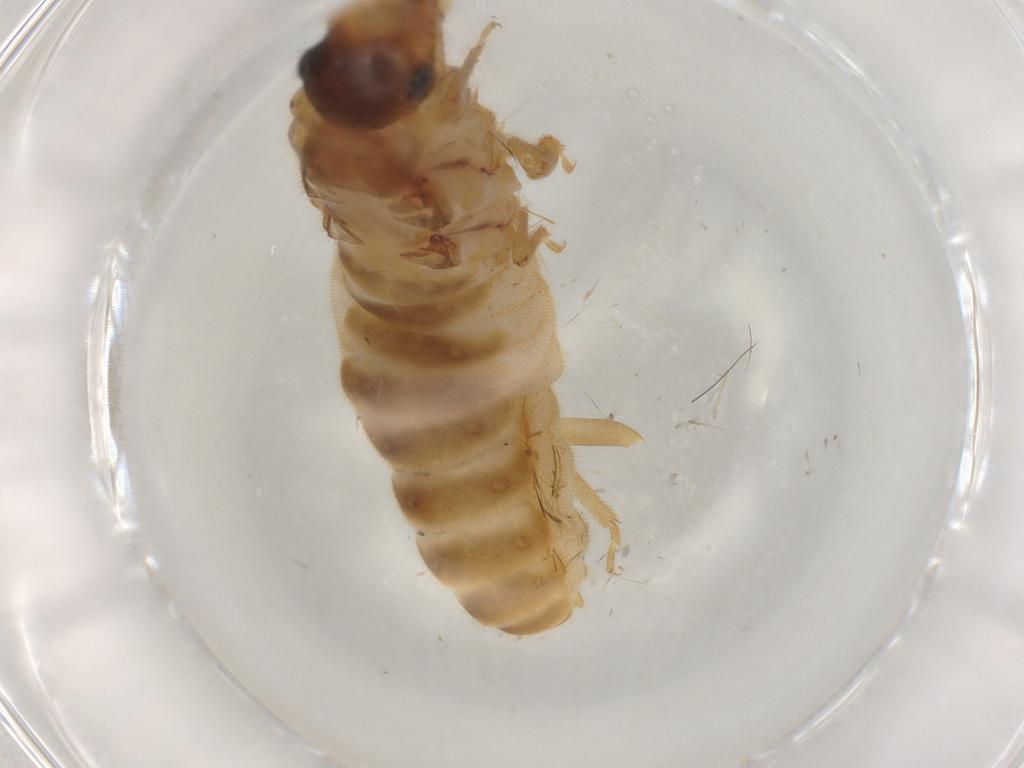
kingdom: Animalia
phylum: Arthropoda
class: Insecta
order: Blattodea
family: Termitidae
